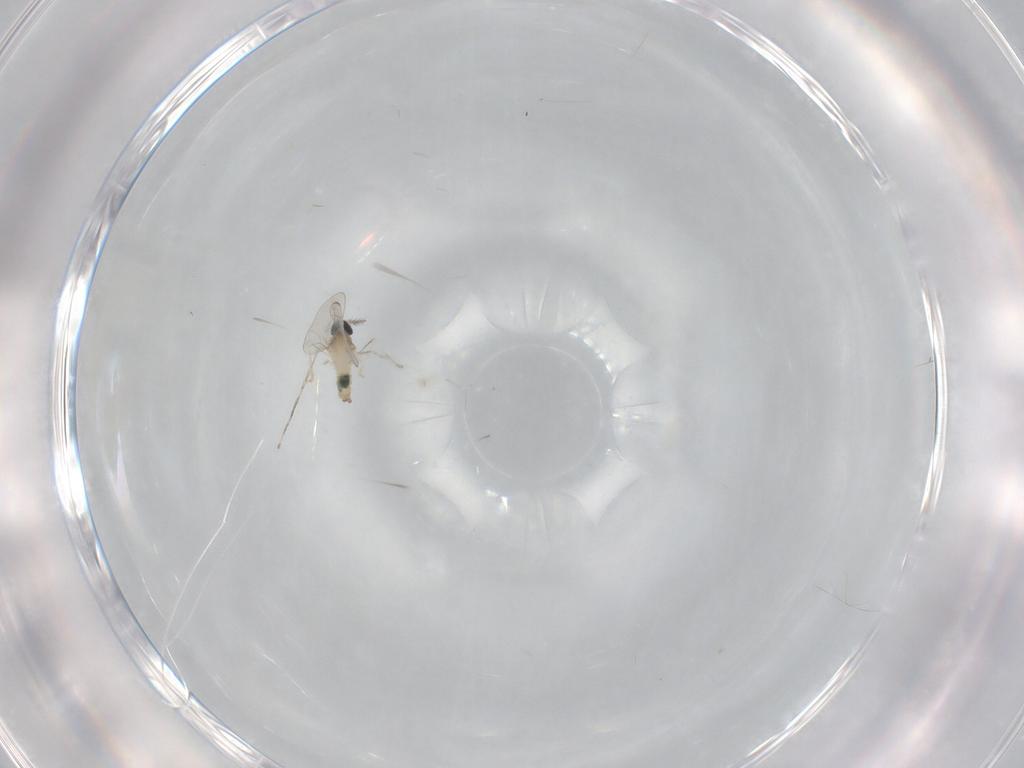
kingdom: Animalia
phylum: Arthropoda
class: Insecta
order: Diptera
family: Cecidomyiidae
